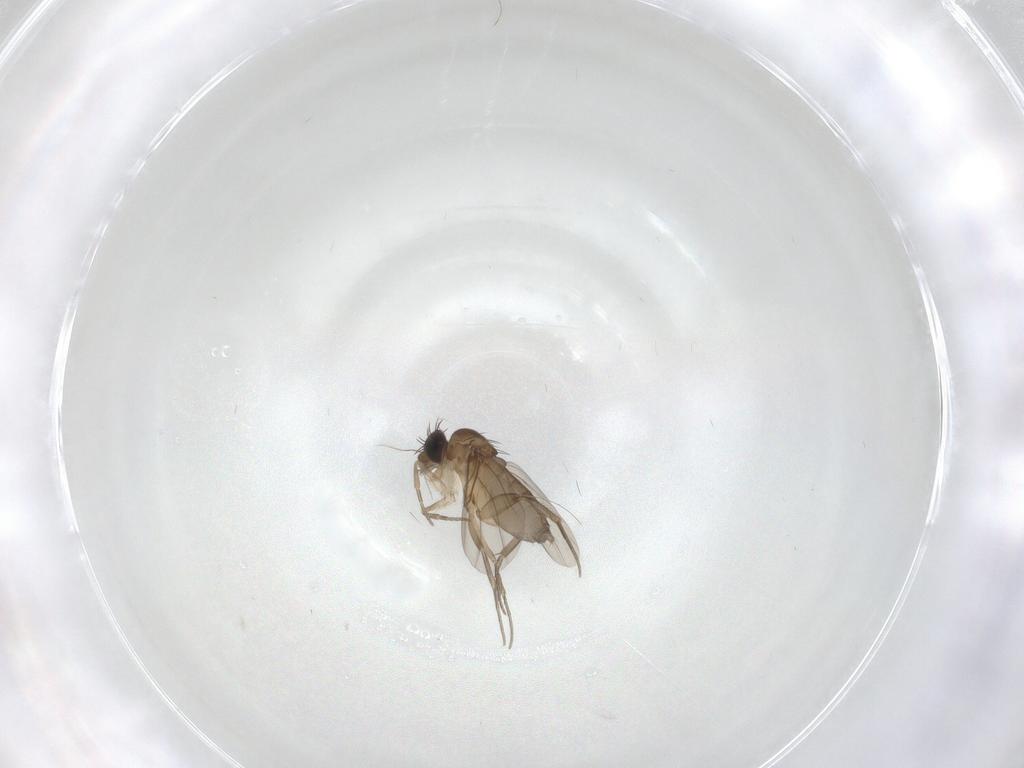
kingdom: Animalia
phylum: Arthropoda
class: Insecta
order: Diptera
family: Phoridae
